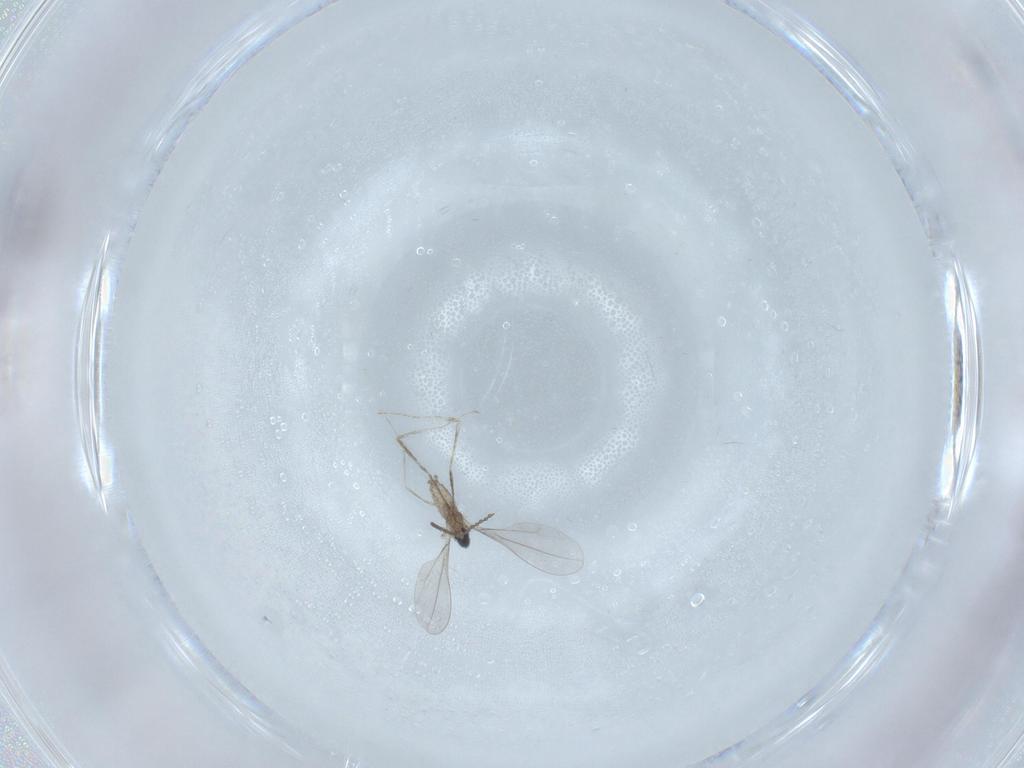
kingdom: Animalia
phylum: Arthropoda
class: Insecta
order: Diptera
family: Cecidomyiidae
